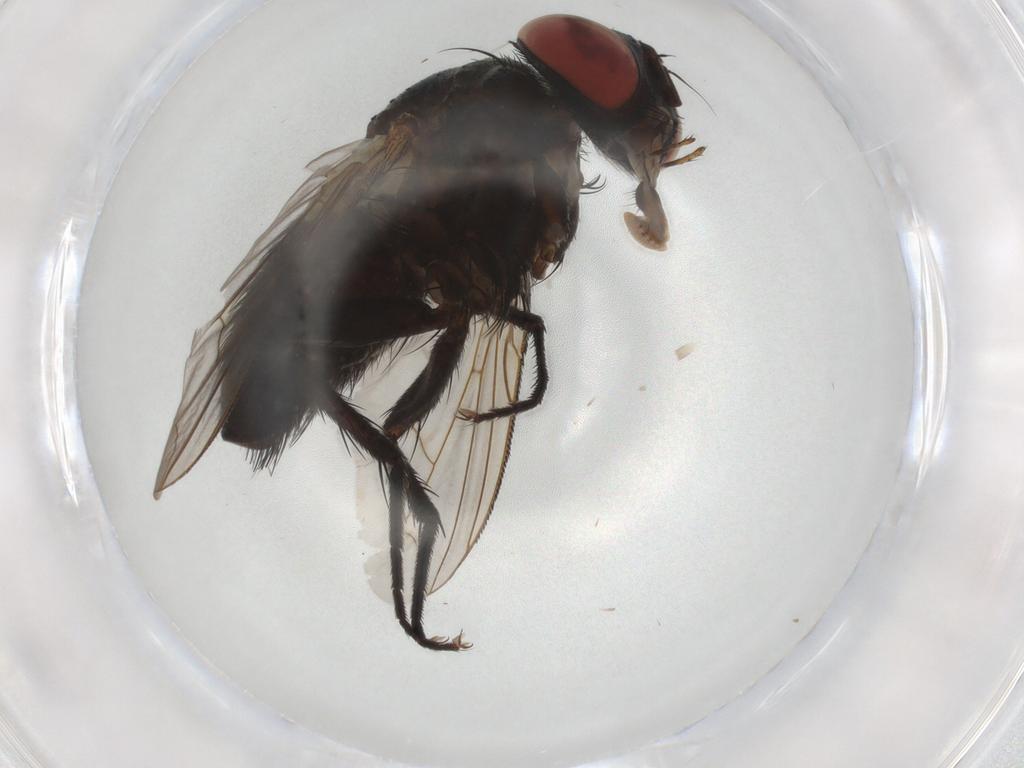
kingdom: Animalia
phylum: Arthropoda
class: Insecta
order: Diptera
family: Tachinidae
